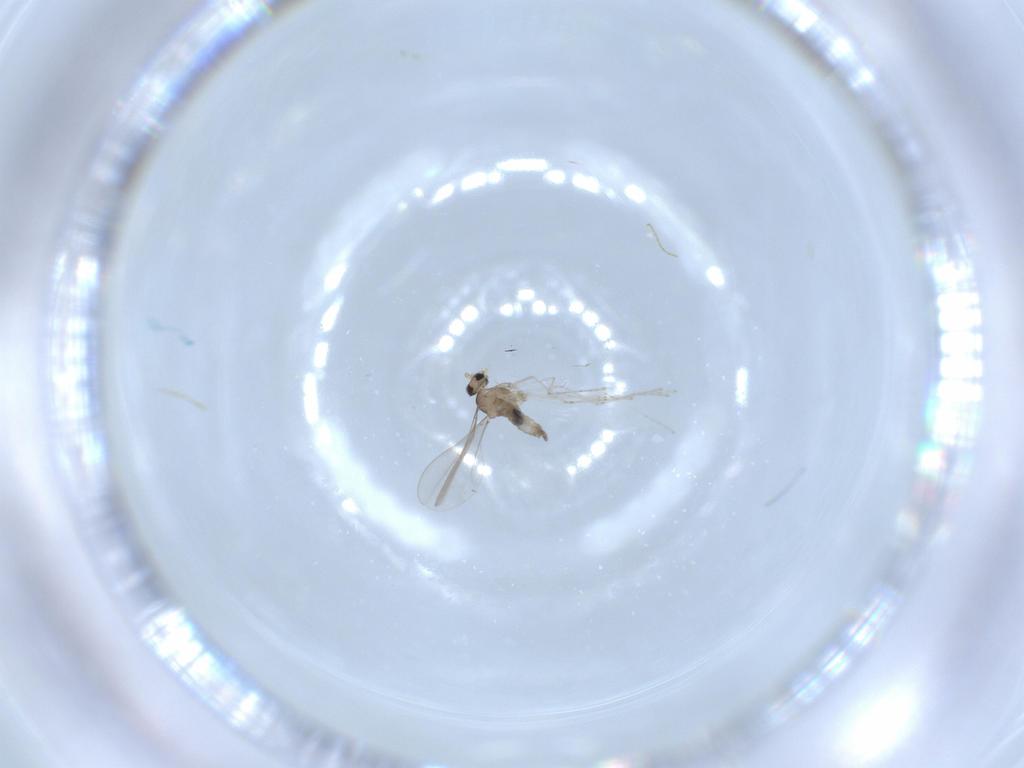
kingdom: Animalia
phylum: Arthropoda
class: Insecta
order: Diptera
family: Cecidomyiidae
